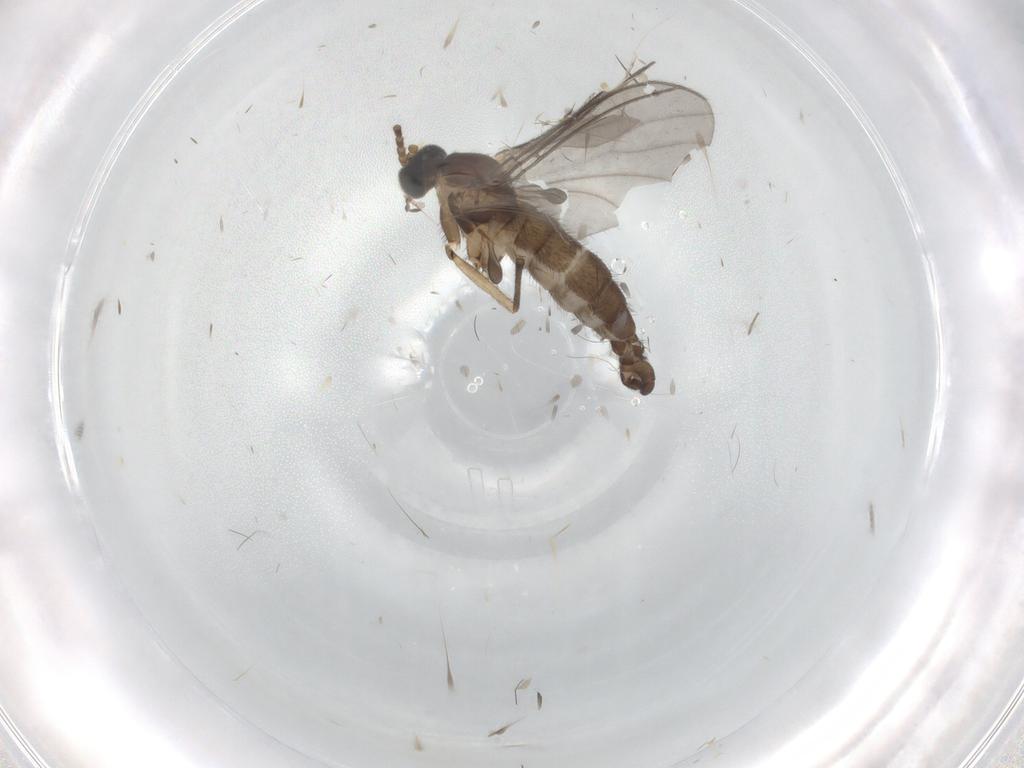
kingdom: Animalia
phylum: Arthropoda
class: Insecta
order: Diptera
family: Sciaridae
